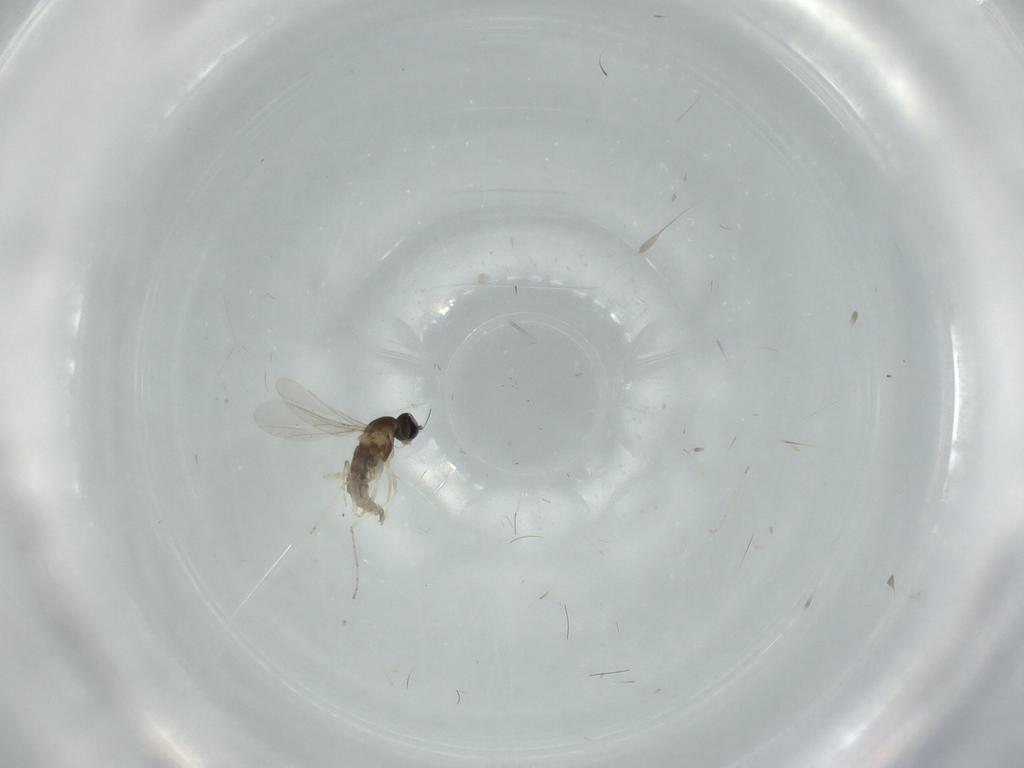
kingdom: Animalia
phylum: Arthropoda
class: Insecta
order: Diptera
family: Cecidomyiidae
